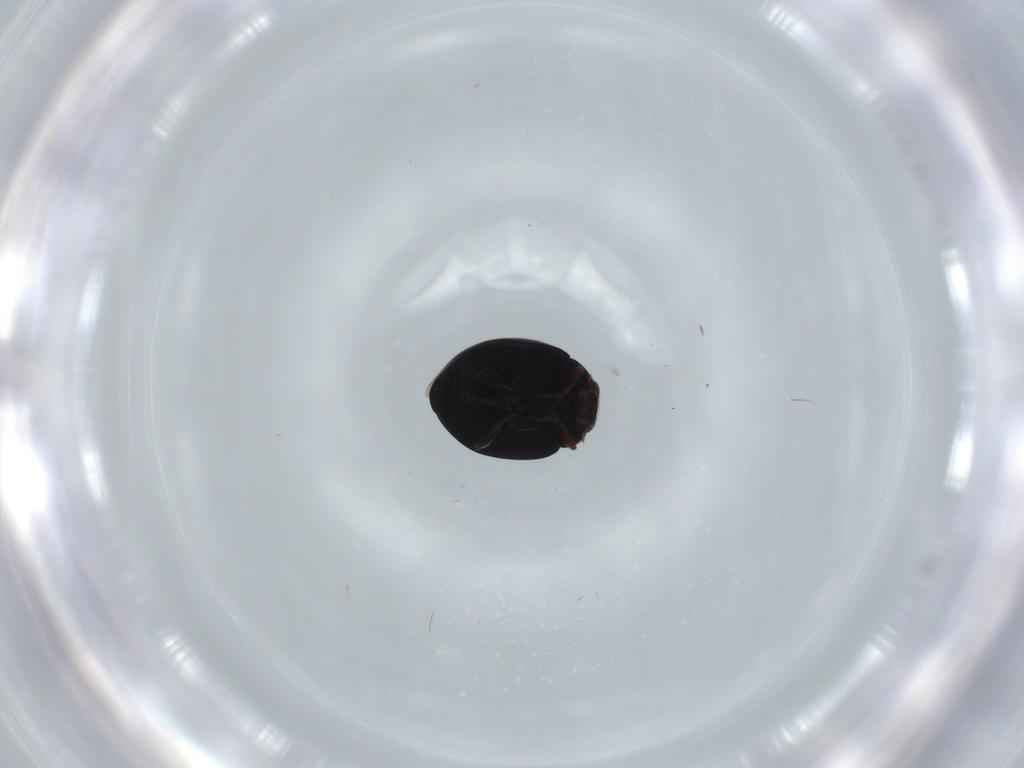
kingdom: Animalia
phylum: Arthropoda
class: Insecta
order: Coleoptera
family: Coccinellidae
